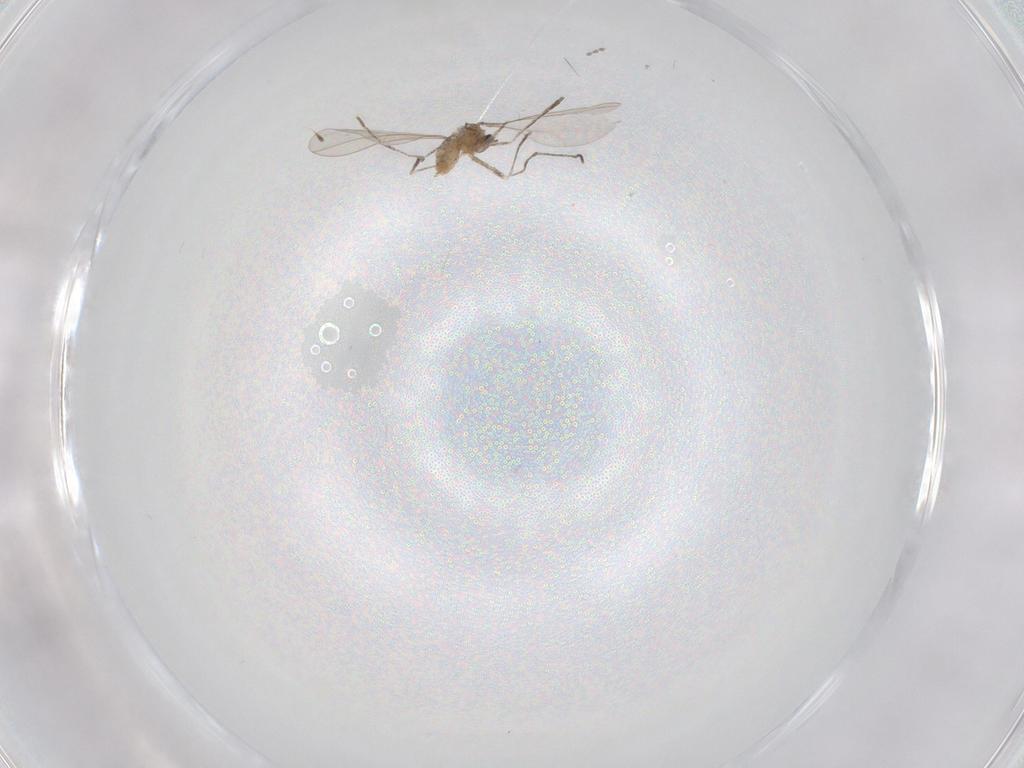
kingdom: Animalia
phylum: Arthropoda
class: Insecta
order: Diptera
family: Cecidomyiidae
